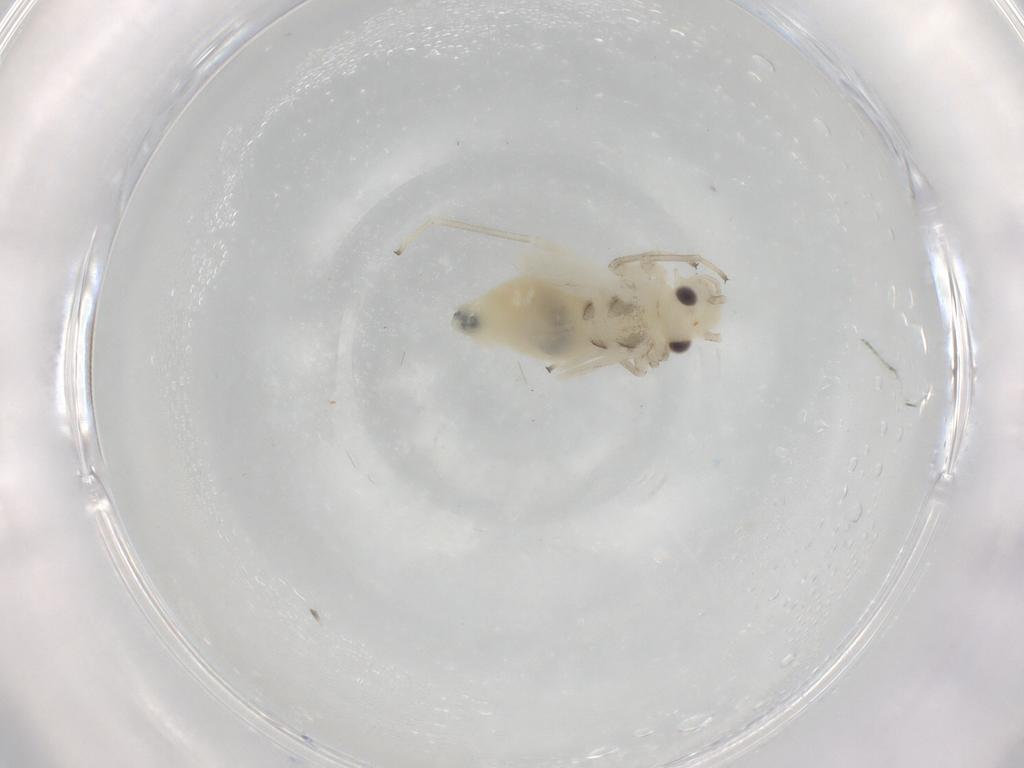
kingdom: Animalia
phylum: Arthropoda
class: Insecta
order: Psocodea
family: Caeciliusidae
